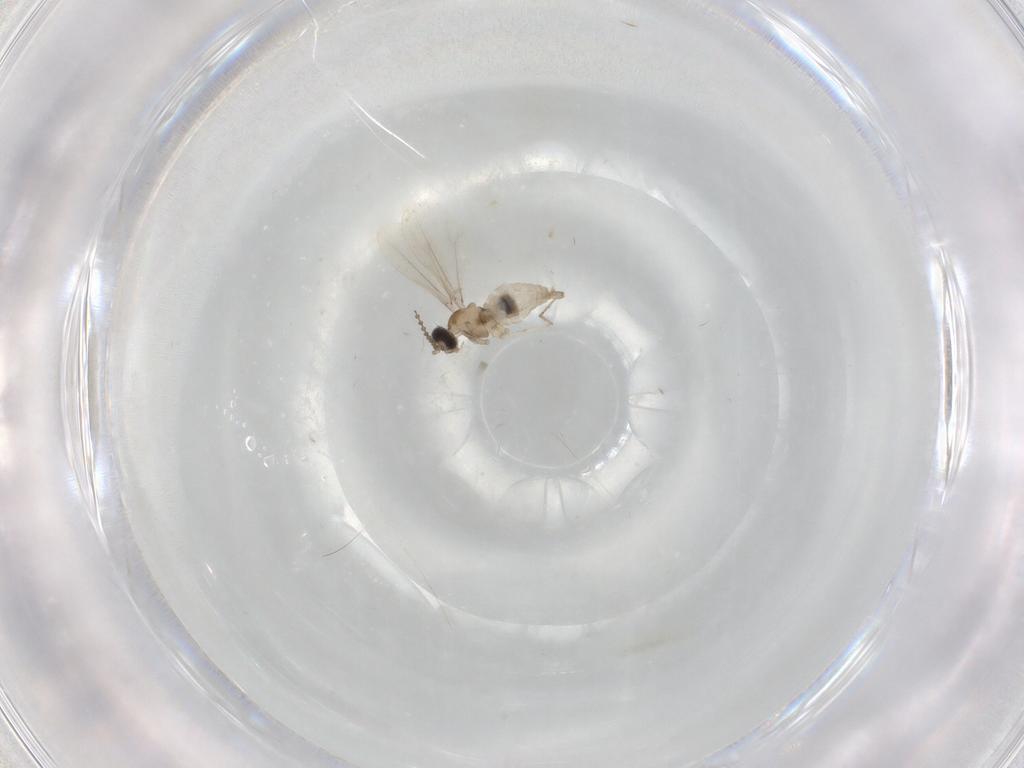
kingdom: Animalia
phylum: Arthropoda
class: Insecta
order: Diptera
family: Cecidomyiidae
